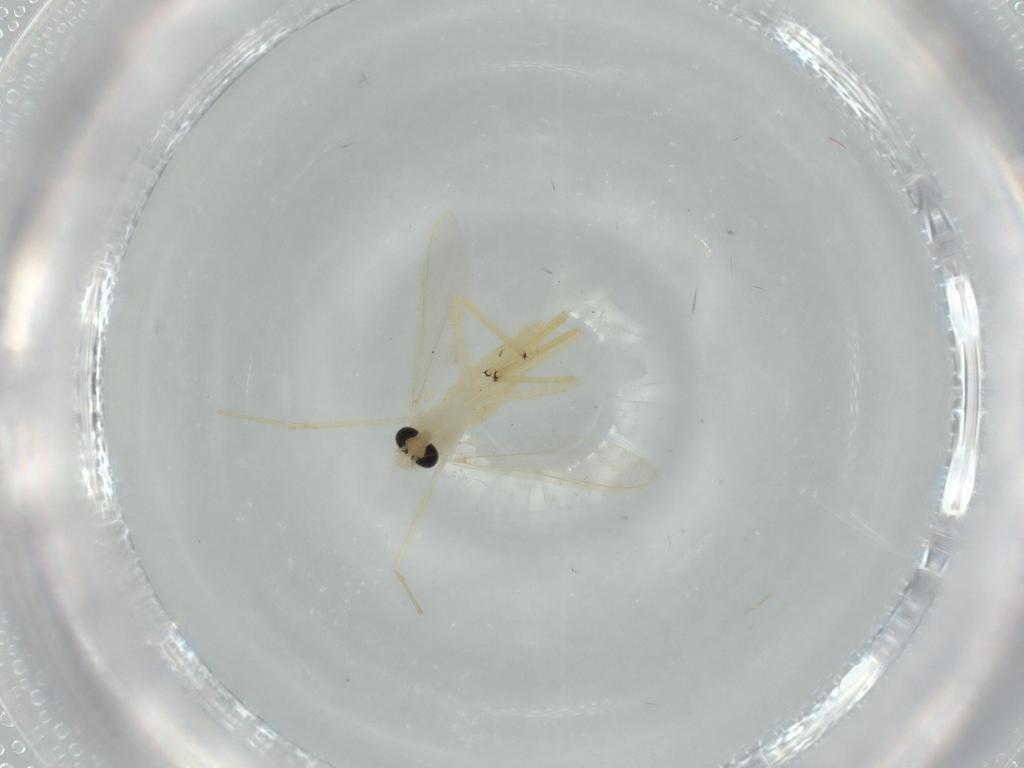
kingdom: Animalia
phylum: Arthropoda
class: Insecta
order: Diptera
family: Chironomidae
